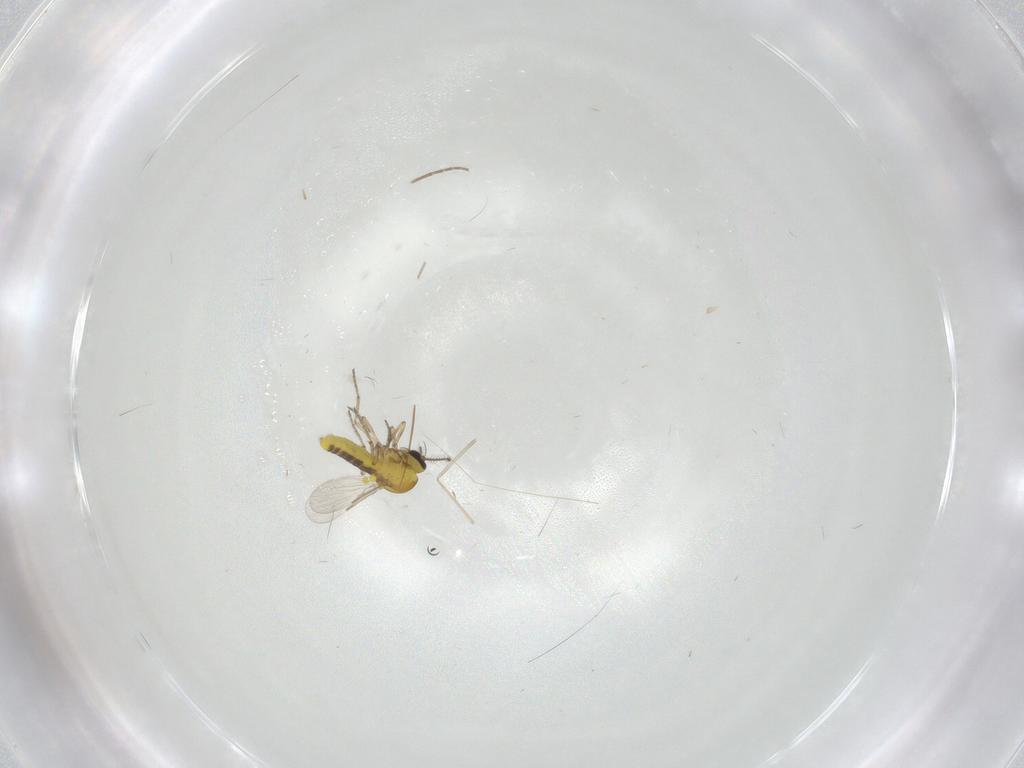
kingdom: Animalia
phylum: Arthropoda
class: Insecta
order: Diptera
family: Cecidomyiidae
